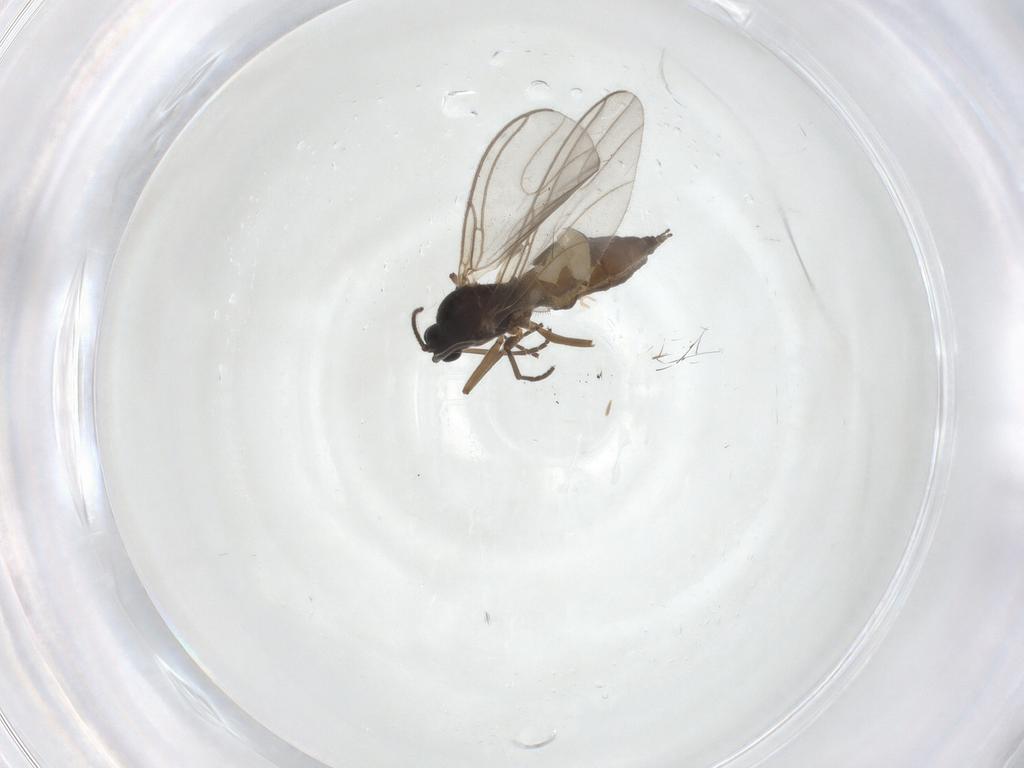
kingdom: Animalia
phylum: Arthropoda
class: Insecta
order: Diptera
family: Sciaridae
